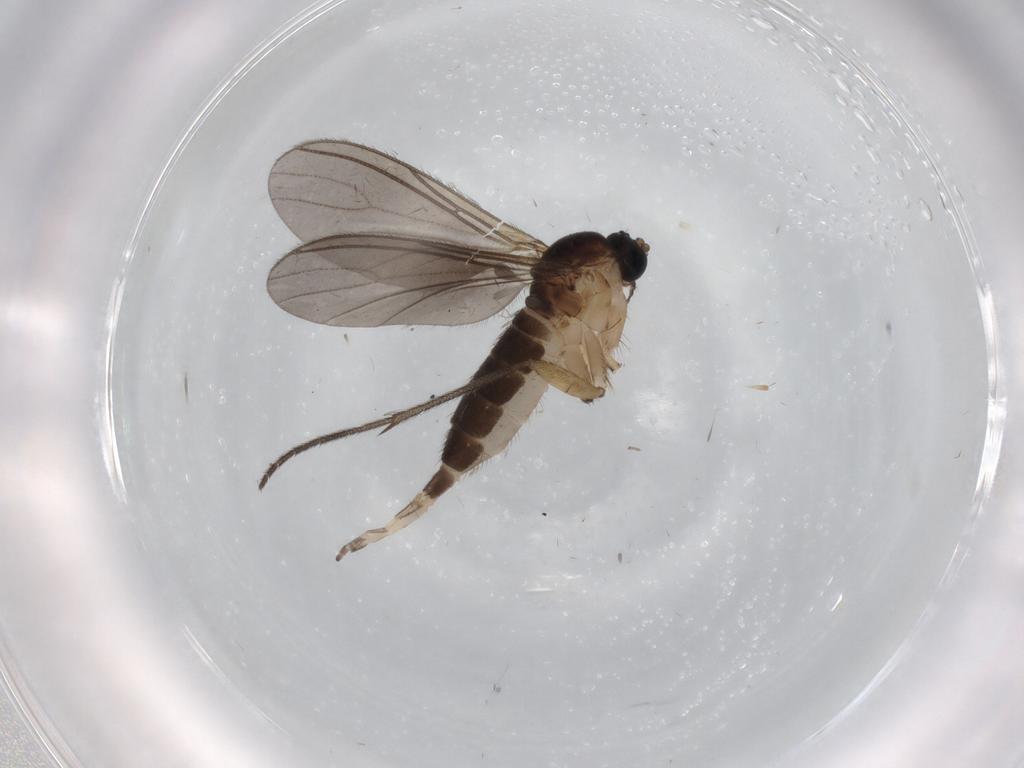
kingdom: Animalia
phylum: Arthropoda
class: Insecta
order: Diptera
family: Sciaridae
